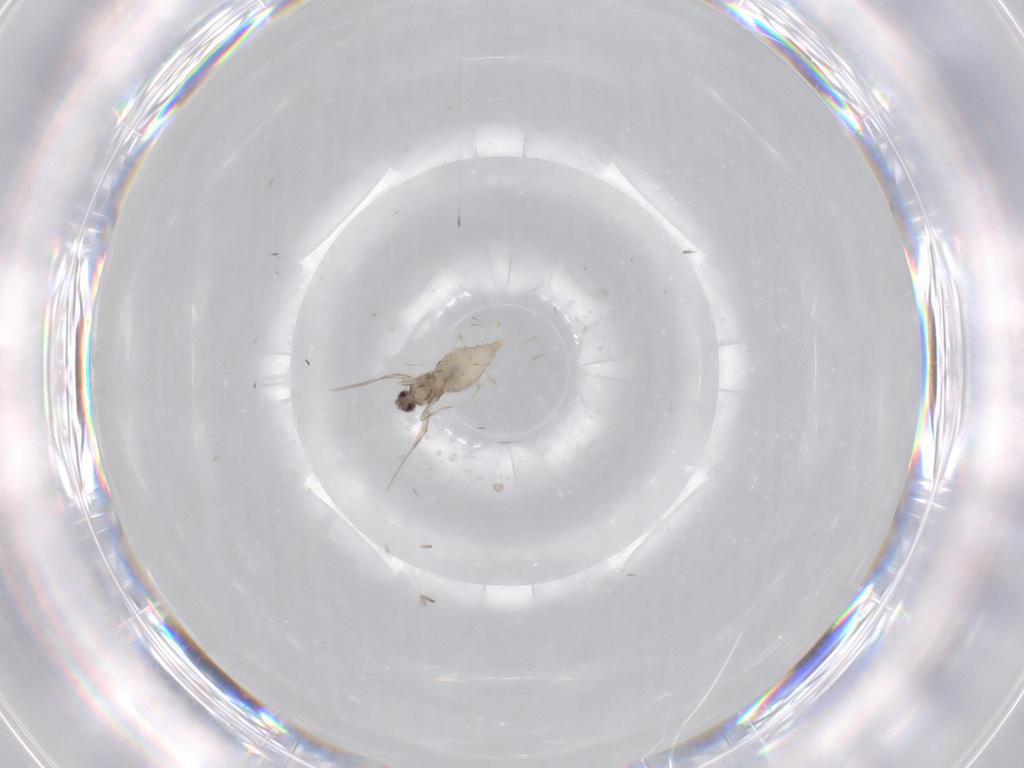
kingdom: Animalia
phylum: Arthropoda
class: Insecta
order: Diptera
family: Cecidomyiidae
